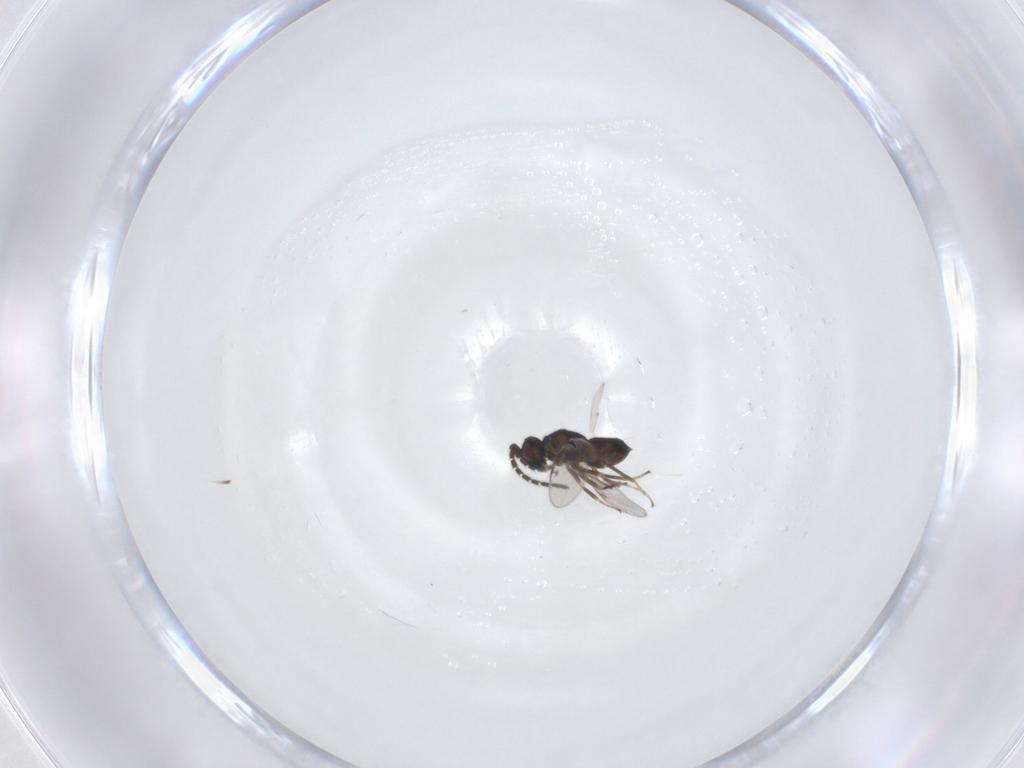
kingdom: Animalia
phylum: Arthropoda
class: Insecta
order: Hymenoptera
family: Encyrtidae
